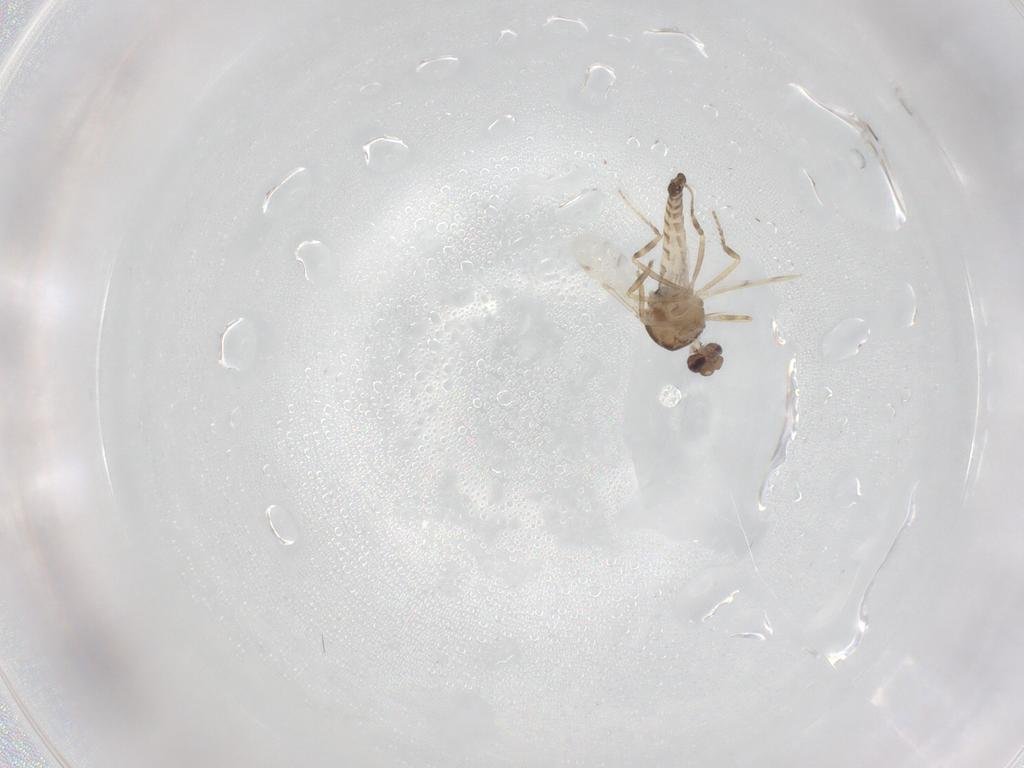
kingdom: Animalia
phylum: Arthropoda
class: Insecta
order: Diptera
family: Ceratopogonidae
